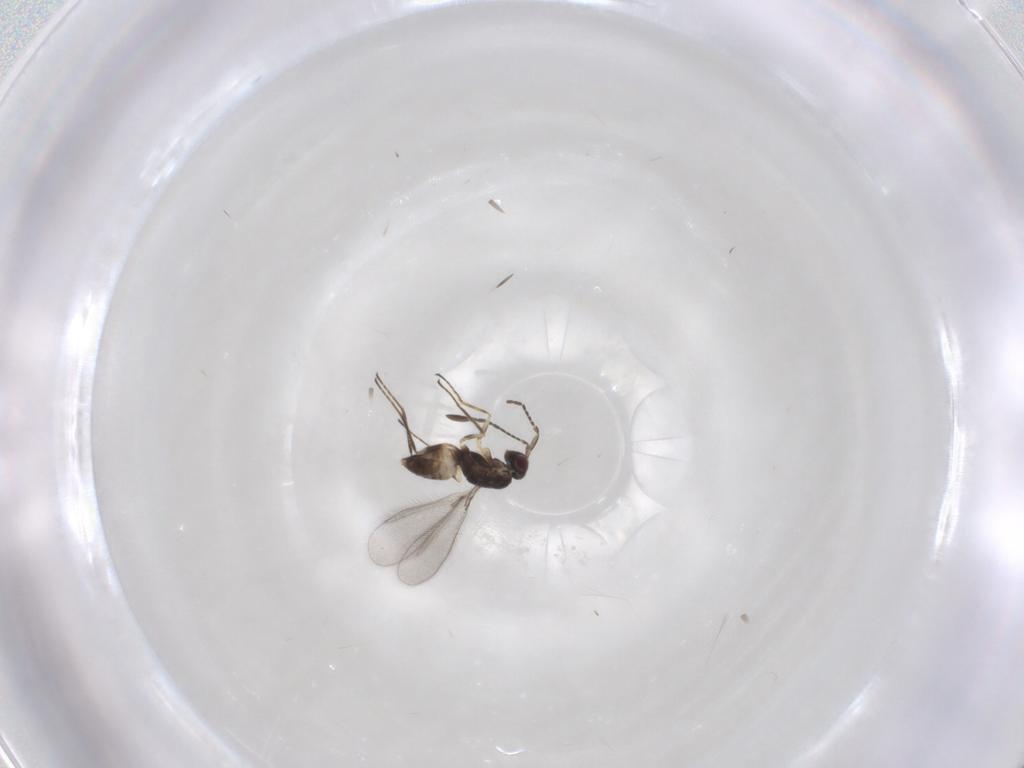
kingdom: Animalia
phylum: Arthropoda
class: Insecta
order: Hymenoptera
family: Mymaridae
